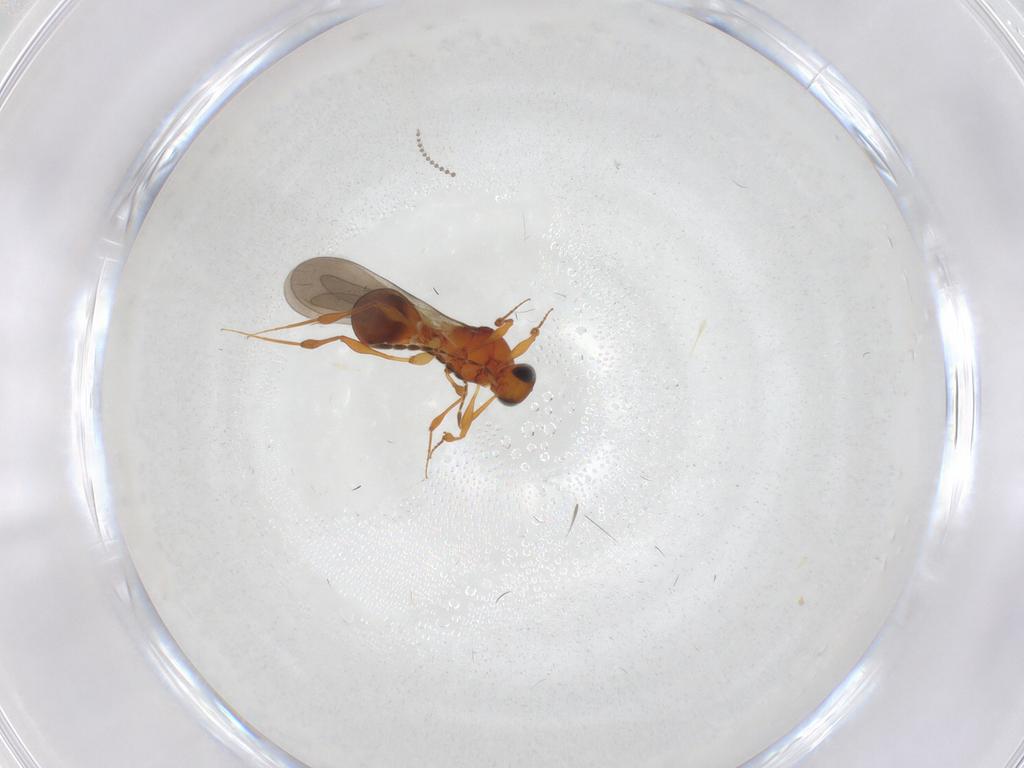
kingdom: Animalia
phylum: Arthropoda
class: Insecta
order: Hymenoptera
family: Platygastridae
